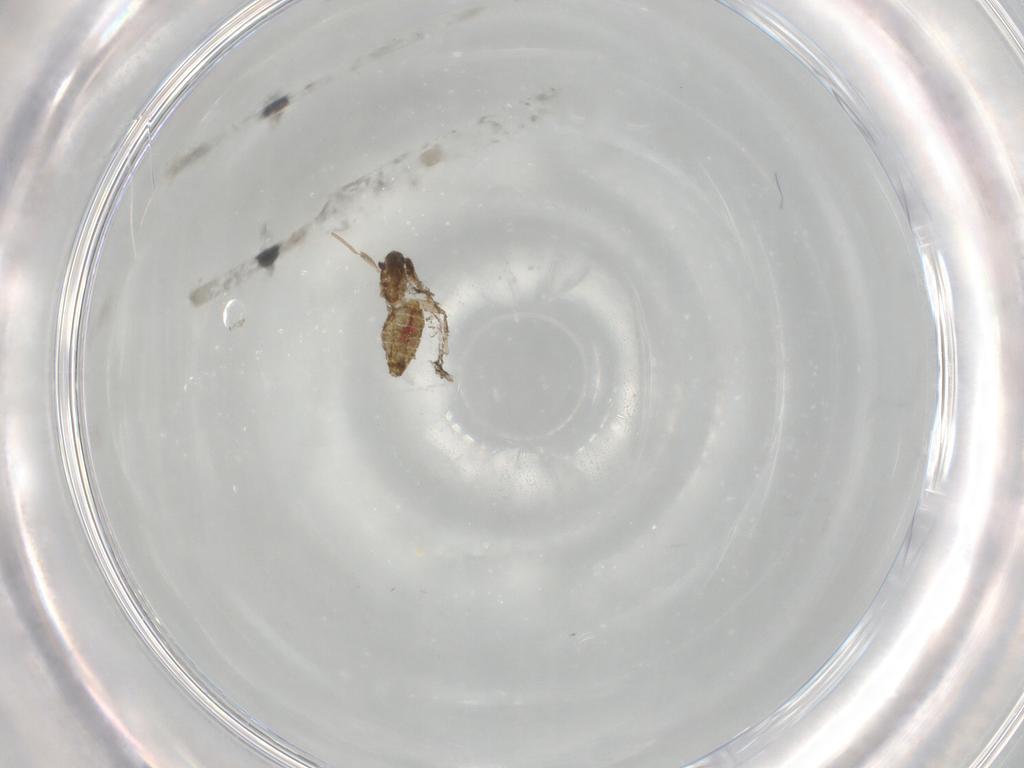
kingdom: Animalia
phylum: Arthropoda
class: Insecta
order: Diptera
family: Chironomidae
